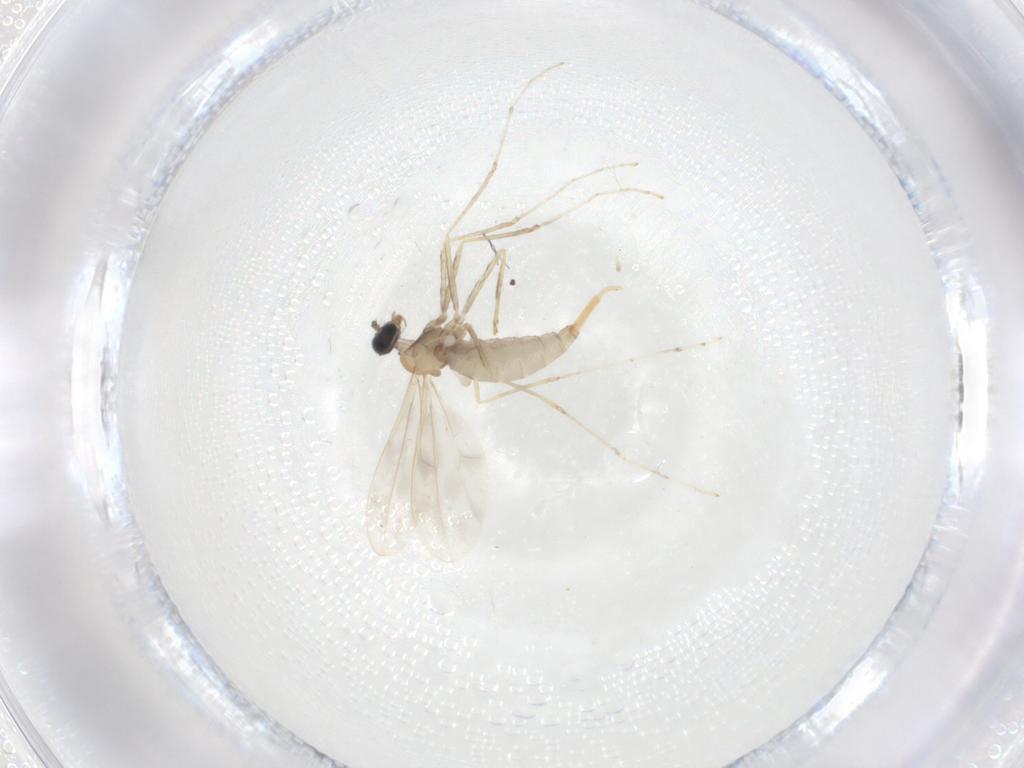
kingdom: Animalia
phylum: Arthropoda
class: Insecta
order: Diptera
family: Cecidomyiidae
